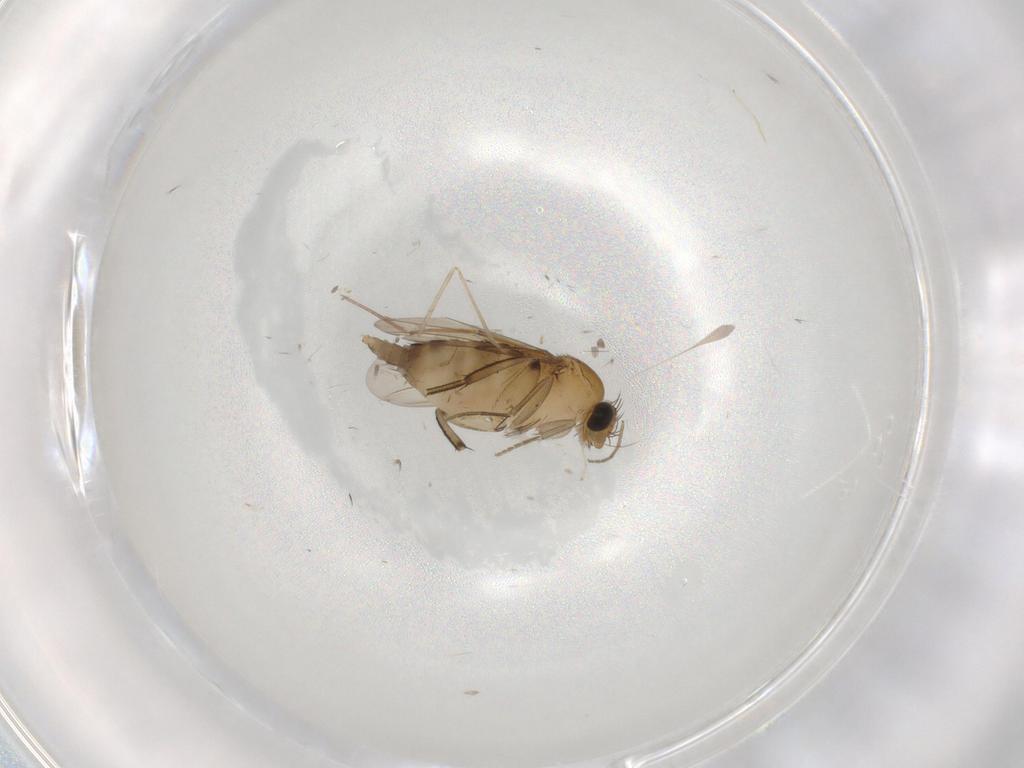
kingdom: Animalia
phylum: Arthropoda
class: Insecta
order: Diptera
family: Phoridae
